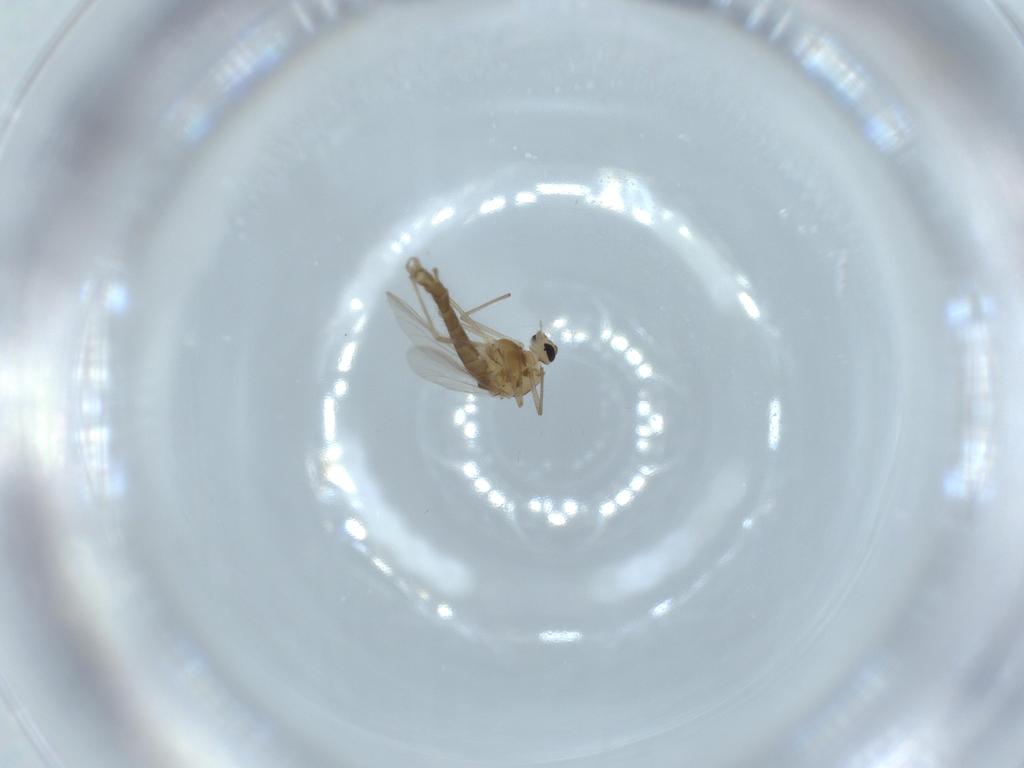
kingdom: Animalia
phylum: Arthropoda
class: Insecta
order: Diptera
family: Chironomidae
